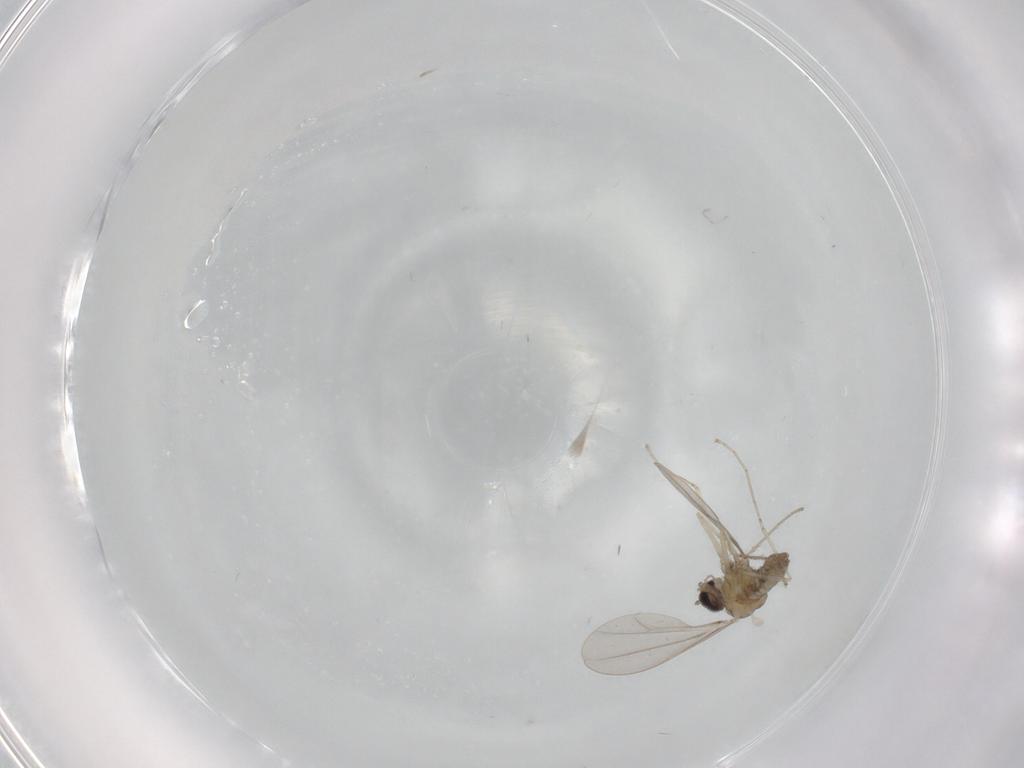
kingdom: Animalia
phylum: Arthropoda
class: Insecta
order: Diptera
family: Cecidomyiidae
